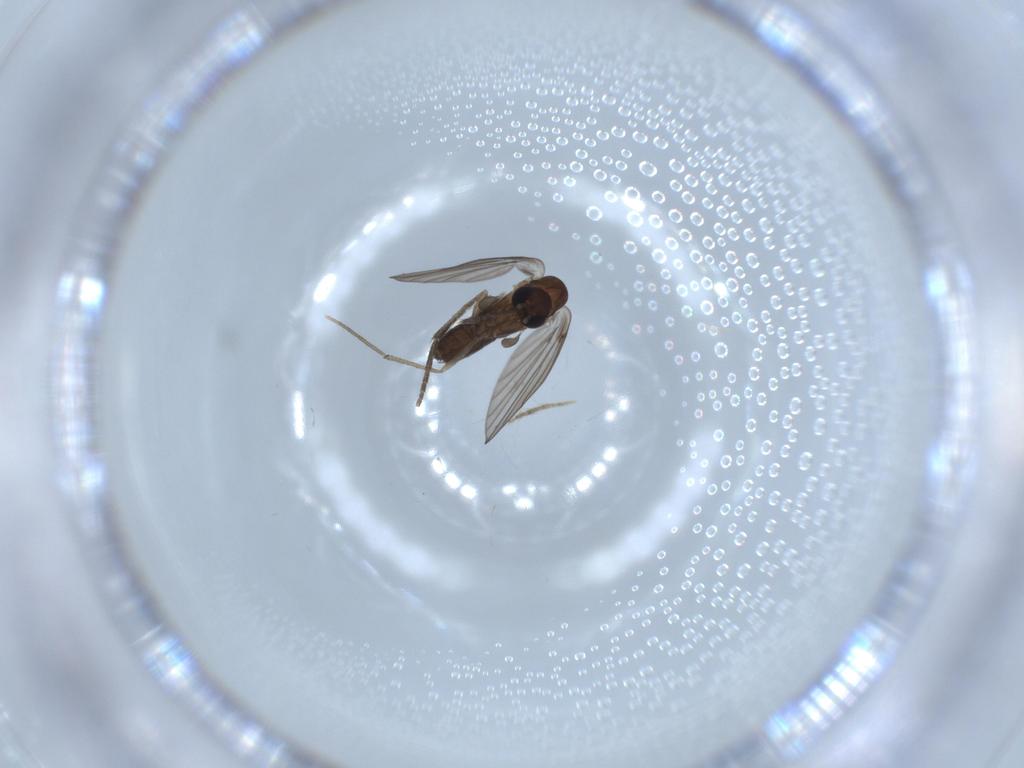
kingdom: Animalia
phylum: Arthropoda
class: Insecta
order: Diptera
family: Psychodidae
